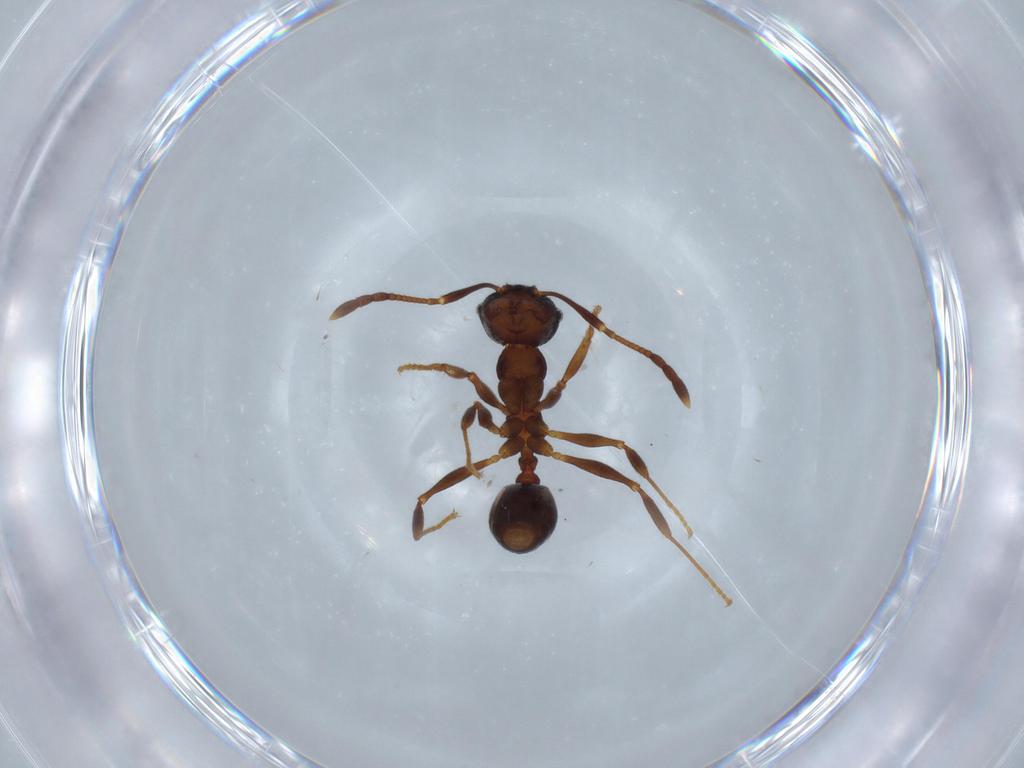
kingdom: Animalia
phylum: Arthropoda
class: Insecta
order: Hymenoptera
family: Formicidae
